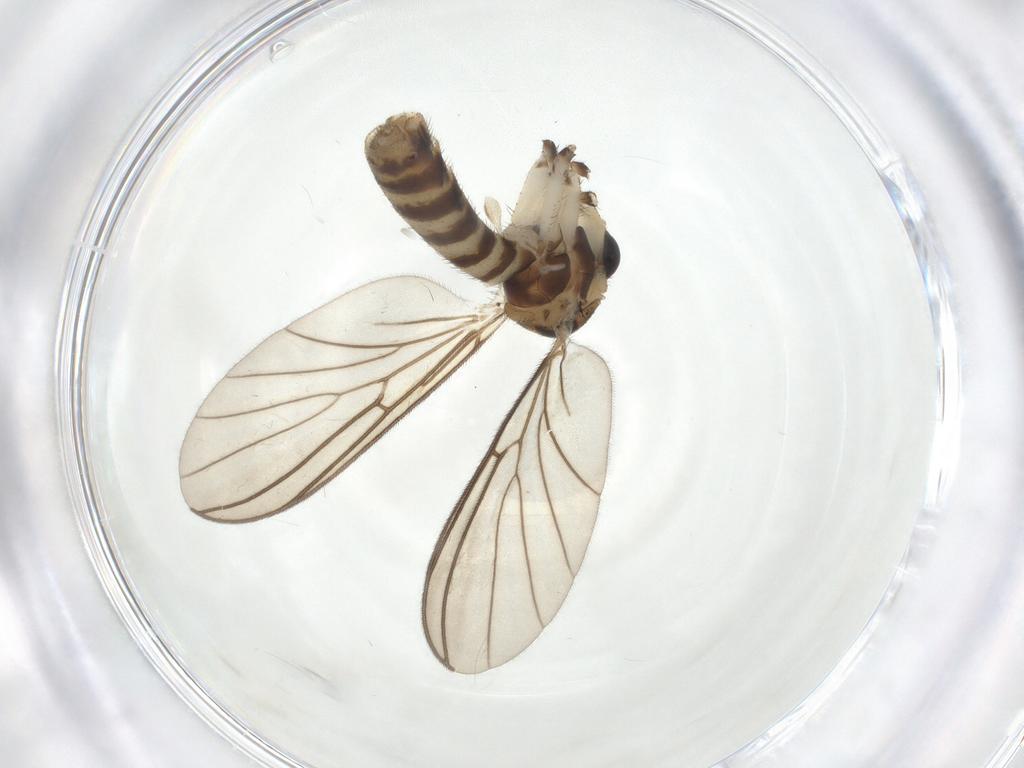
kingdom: Animalia
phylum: Arthropoda
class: Insecta
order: Diptera
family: Mycetophilidae
